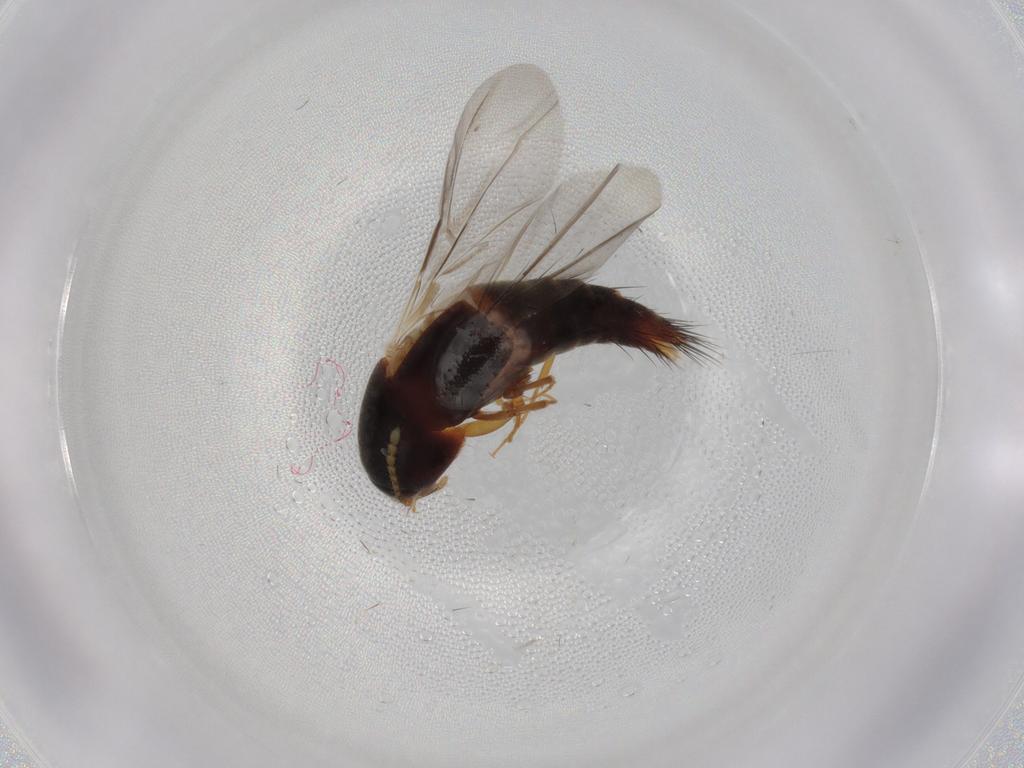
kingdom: Animalia
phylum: Arthropoda
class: Insecta
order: Coleoptera
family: Staphylinidae
